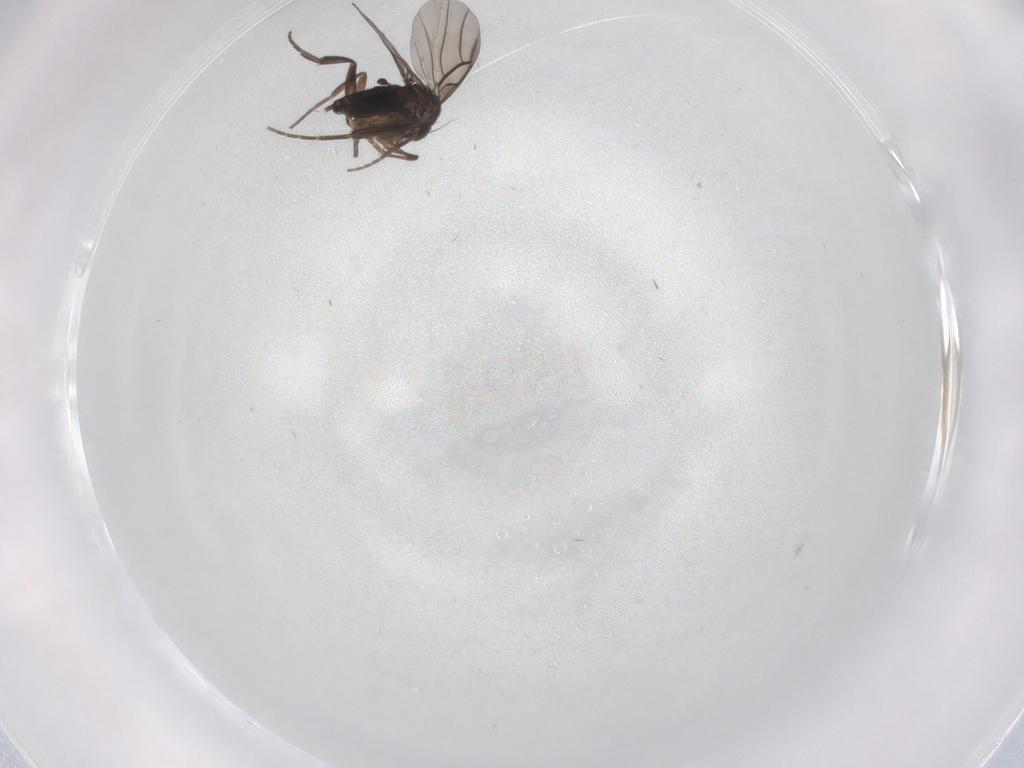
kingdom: Animalia
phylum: Arthropoda
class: Insecta
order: Diptera
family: Phoridae
